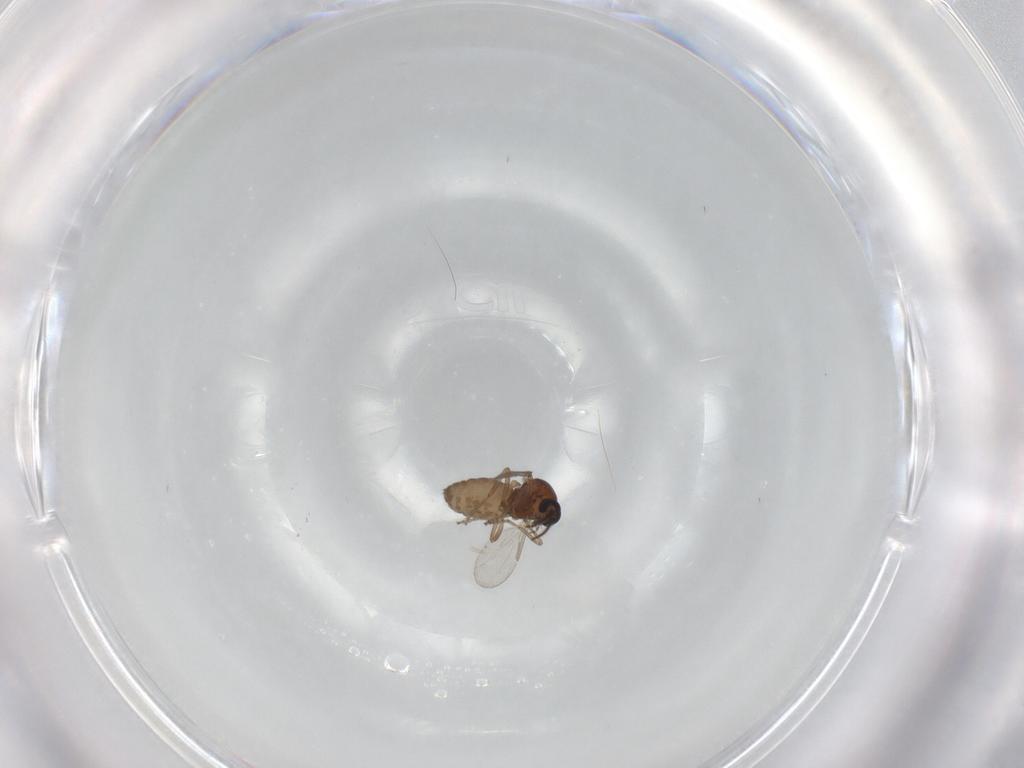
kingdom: Animalia
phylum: Arthropoda
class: Insecta
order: Diptera
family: Ceratopogonidae
